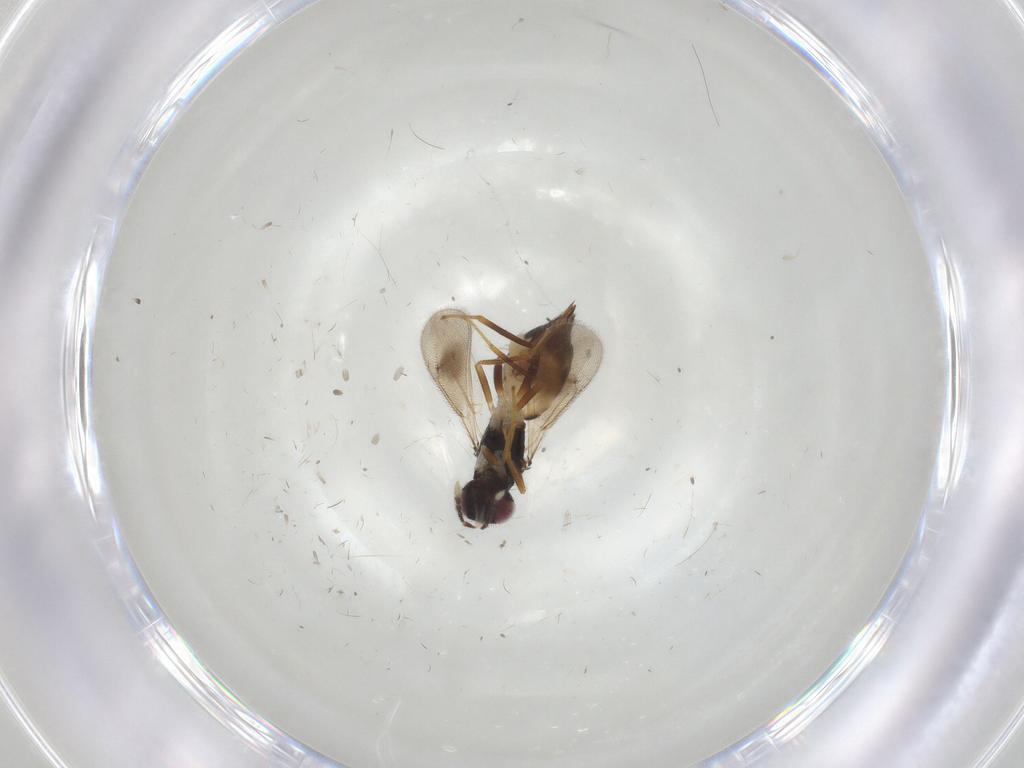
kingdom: Animalia
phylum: Arthropoda
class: Insecta
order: Hymenoptera
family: Eulophidae
